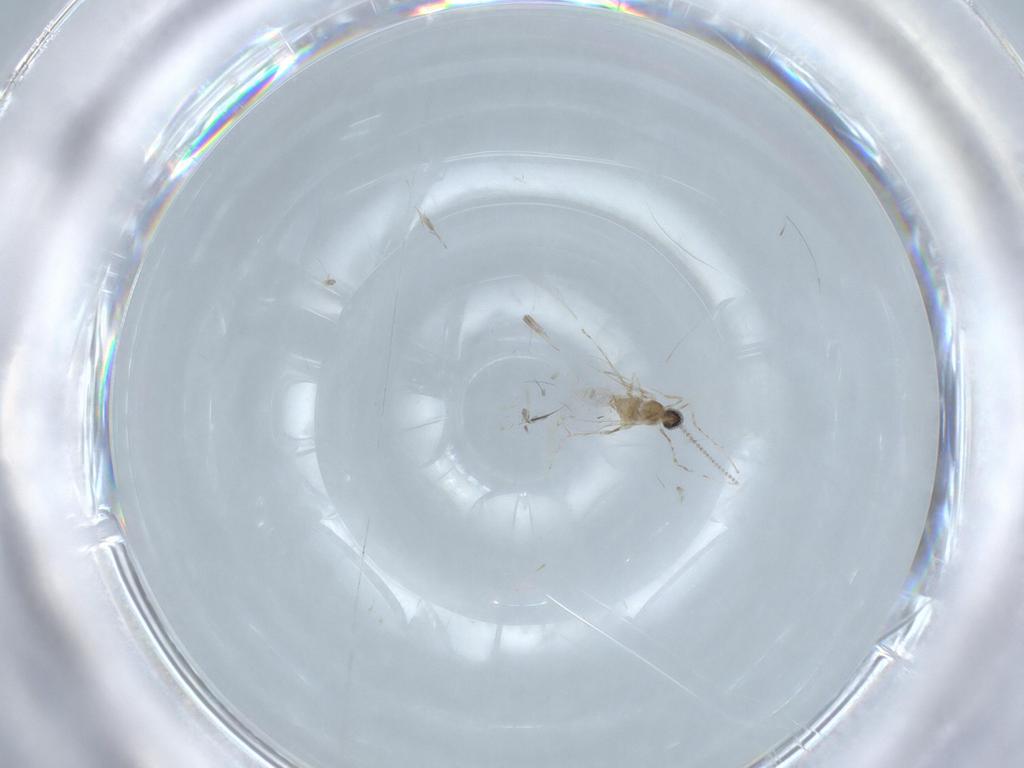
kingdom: Animalia
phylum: Arthropoda
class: Insecta
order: Diptera
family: Cecidomyiidae
